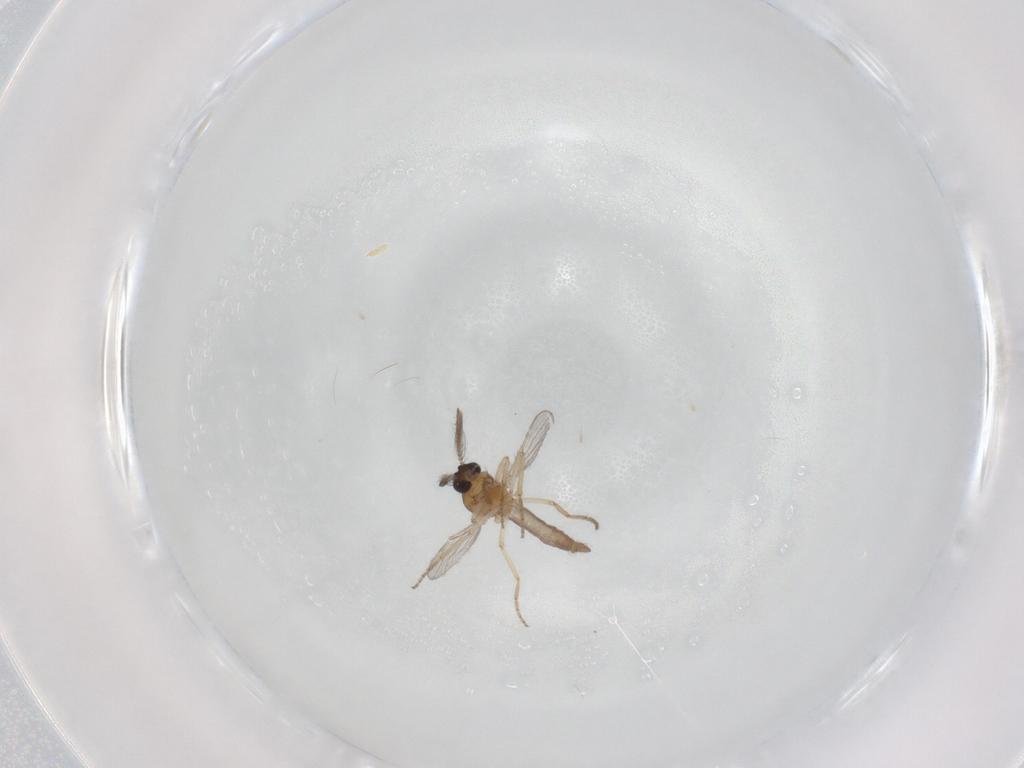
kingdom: Animalia
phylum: Arthropoda
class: Insecta
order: Diptera
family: Ceratopogonidae
